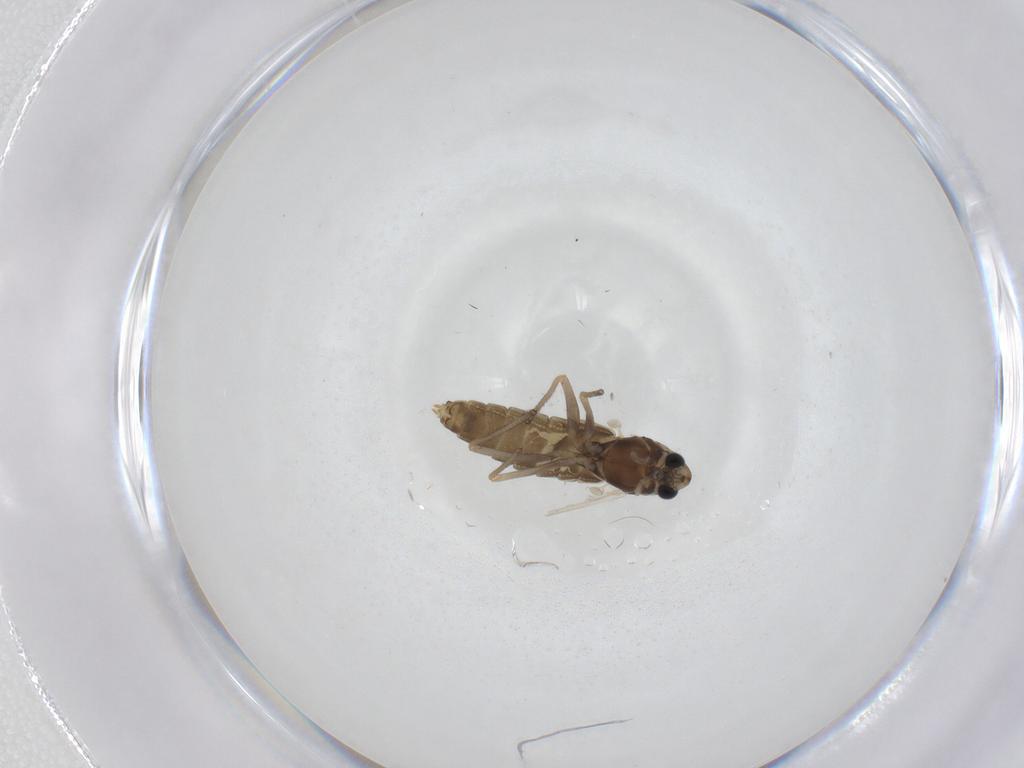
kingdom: Animalia
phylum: Arthropoda
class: Insecta
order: Diptera
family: Chironomidae
